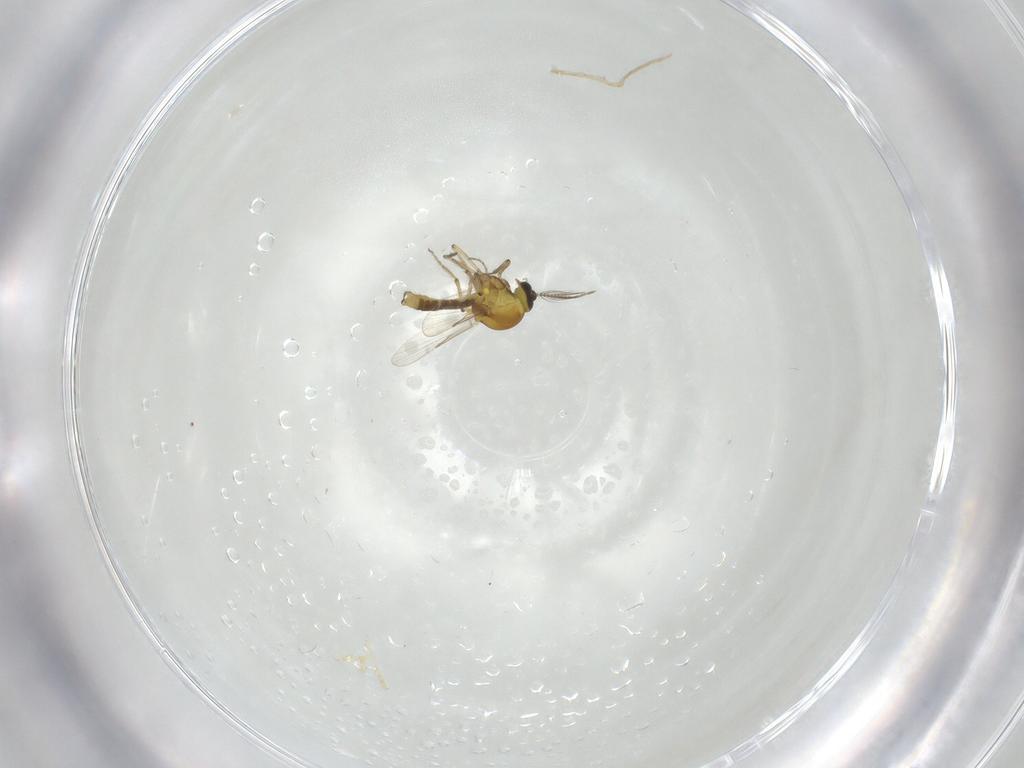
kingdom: Animalia
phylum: Arthropoda
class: Insecta
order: Diptera
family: Ceratopogonidae
